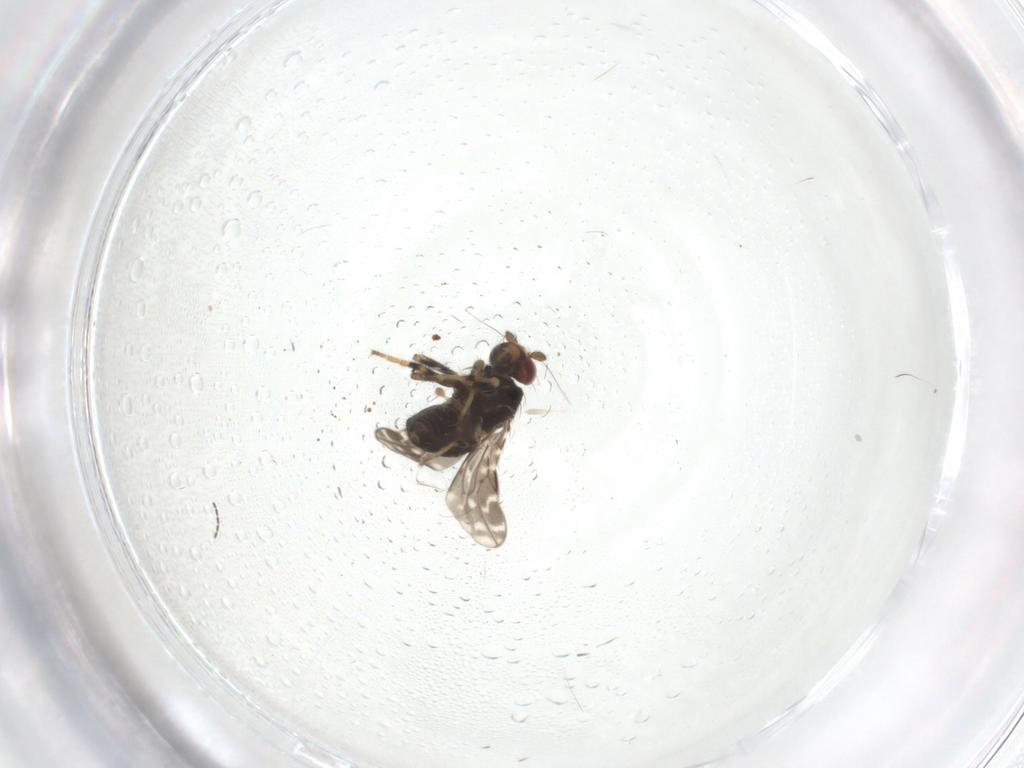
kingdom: Animalia
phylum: Arthropoda
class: Insecta
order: Diptera
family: Sphaeroceridae
